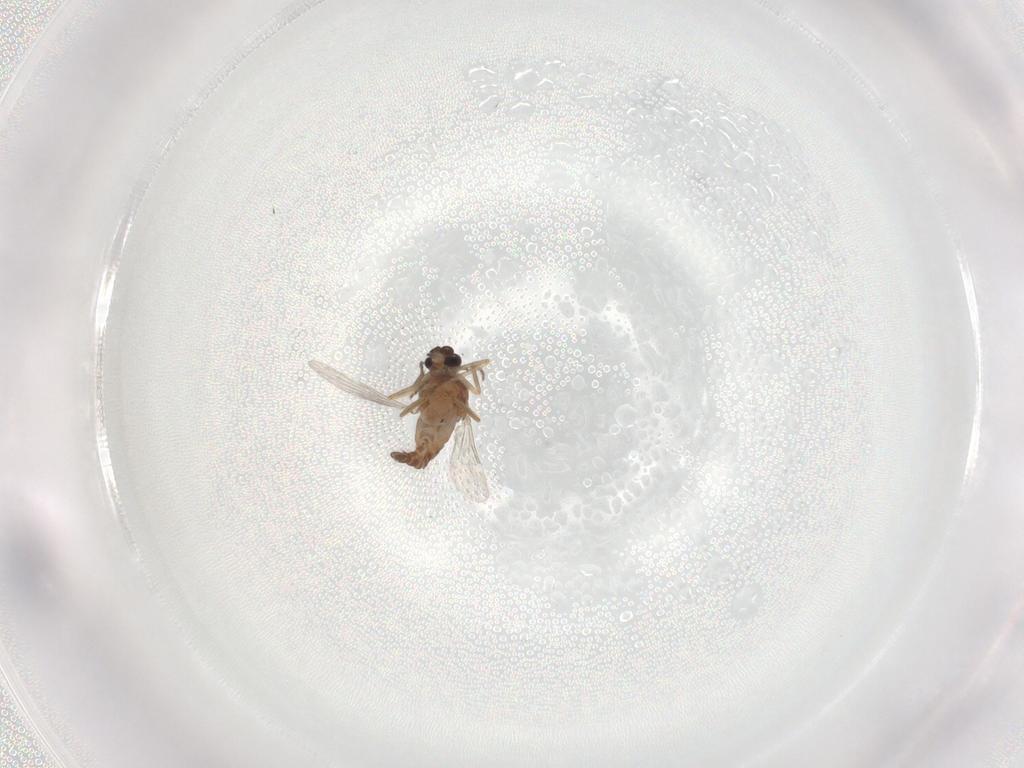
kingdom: Animalia
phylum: Arthropoda
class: Insecta
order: Diptera
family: Ceratopogonidae
